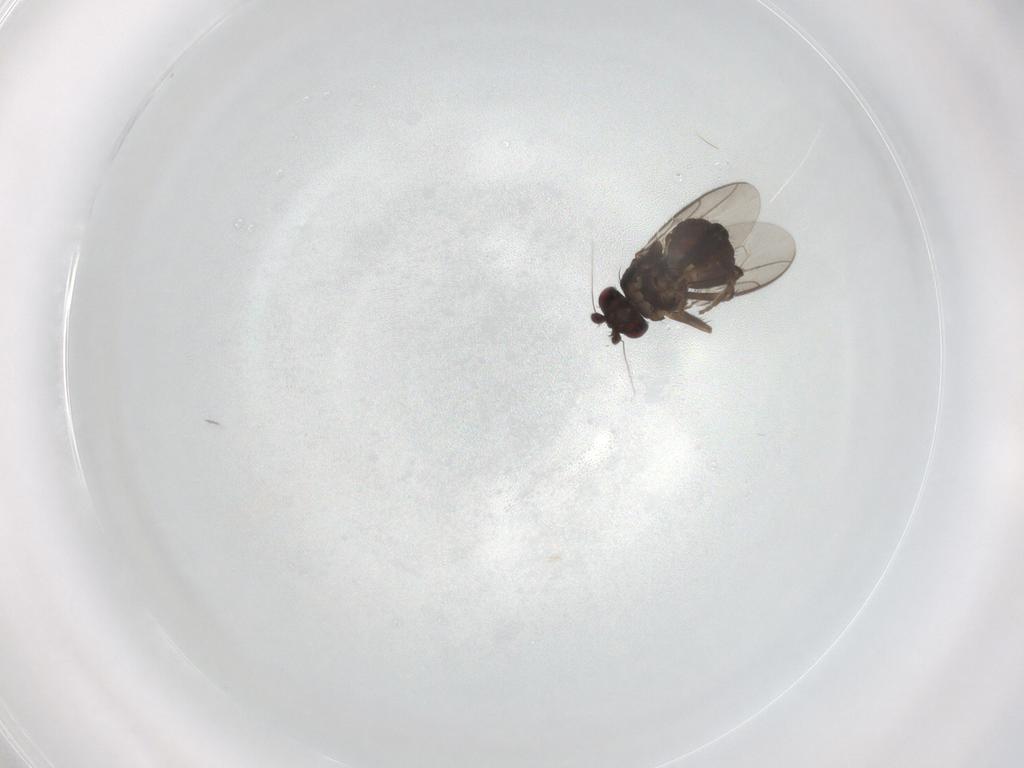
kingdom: Animalia
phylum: Arthropoda
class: Insecta
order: Diptera
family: Sphaeroceridae
